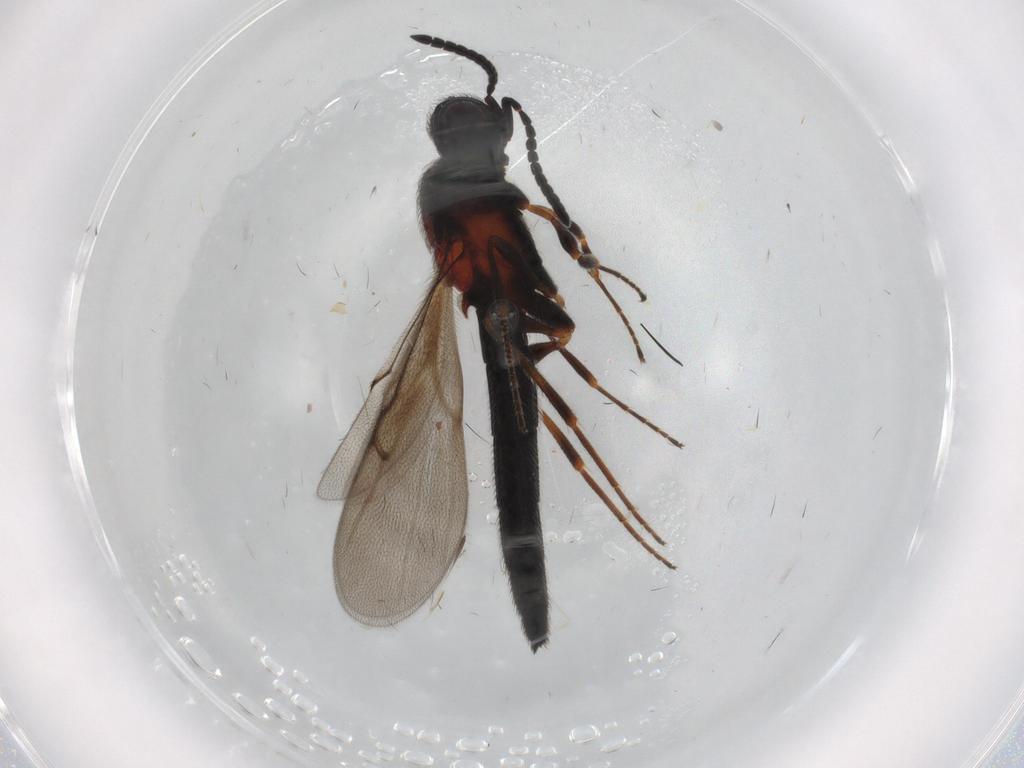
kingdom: Animalia
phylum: Arthropoda
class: Insecta
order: Hymenoptera
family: Scelionidae
